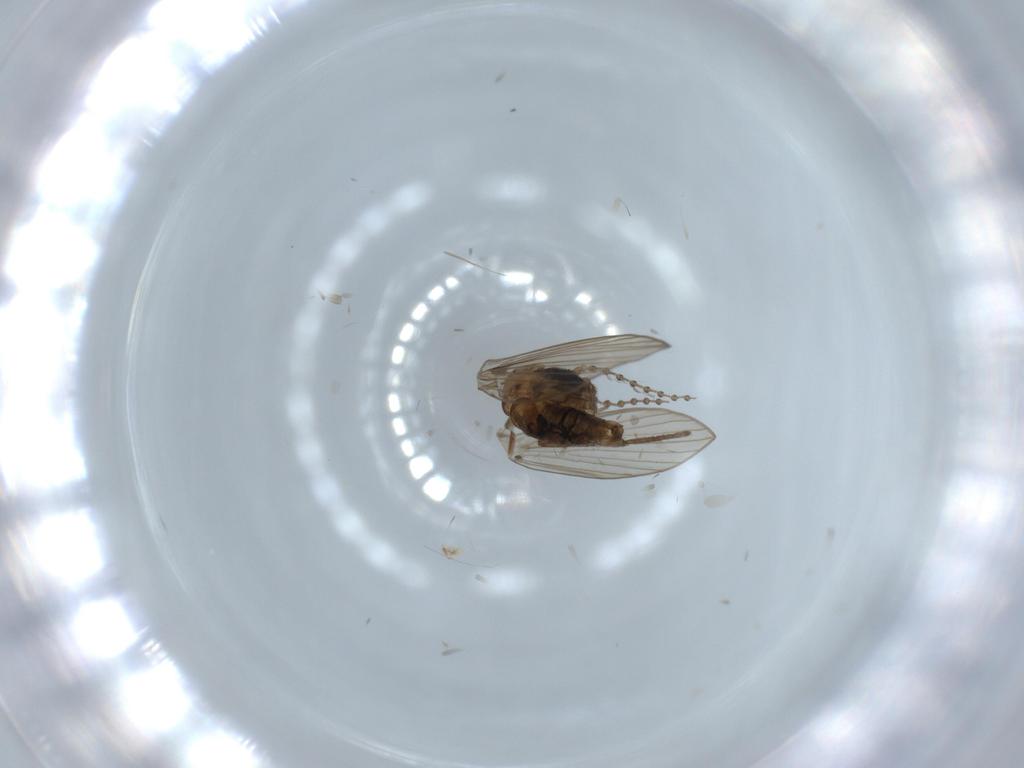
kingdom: Animalia
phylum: Arthropoda
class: Insecta
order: Diptera
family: Psychodidae
